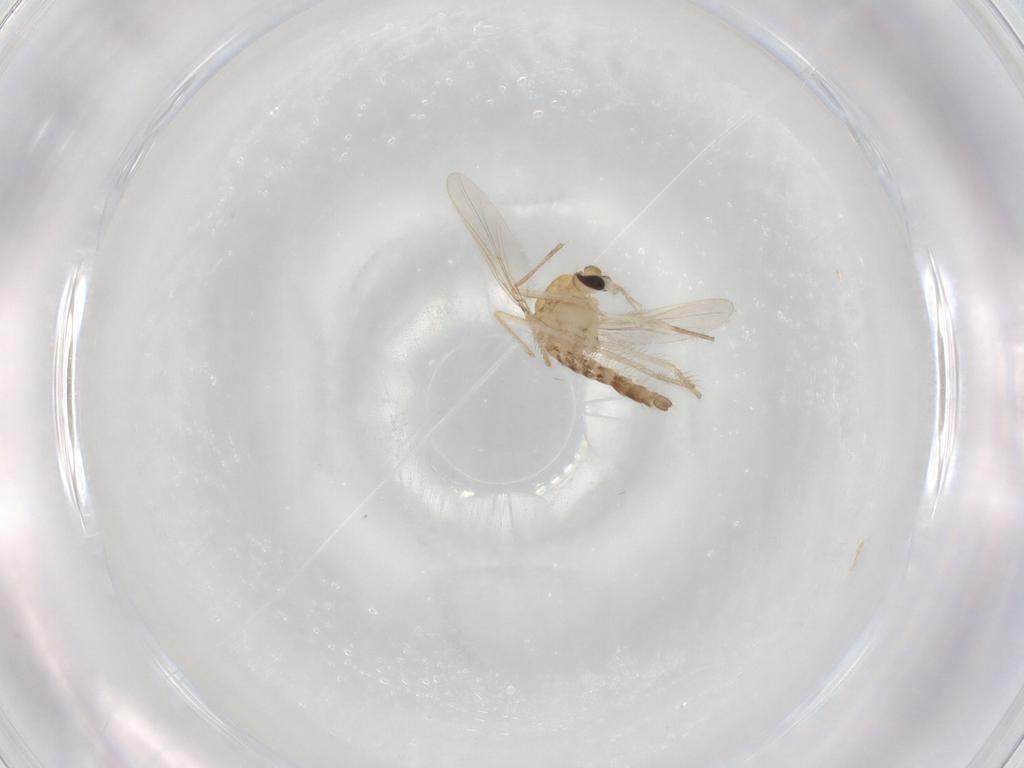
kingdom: Animalia
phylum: Arthropoda
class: Insecta
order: Diptera
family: Chironomidae
